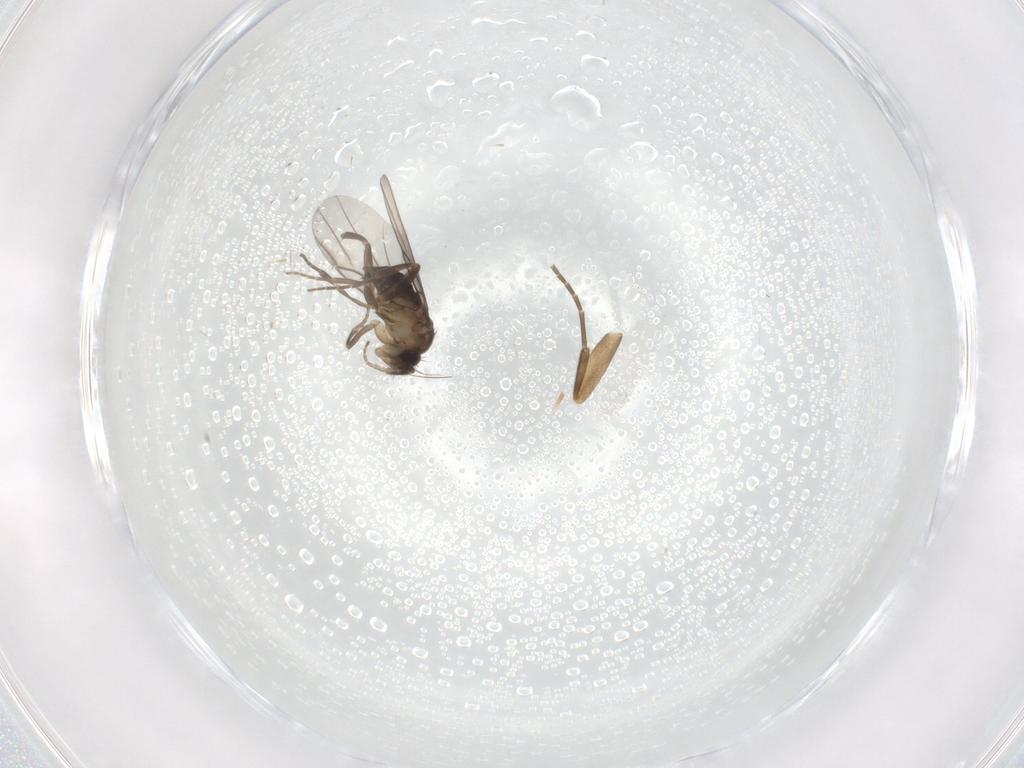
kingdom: Animalia
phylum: Arthropoda
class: Insecta
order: Diptera
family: Phoridae
